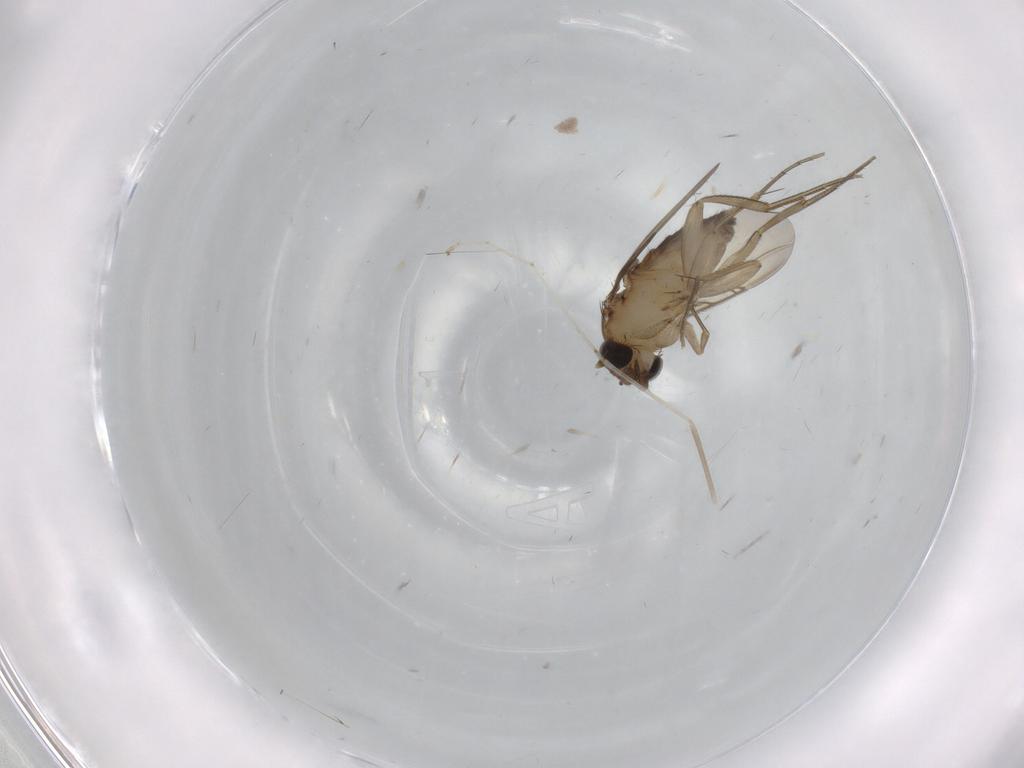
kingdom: Animalia
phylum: Arthropoda
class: Insecta
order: Diptera
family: Phoridae
